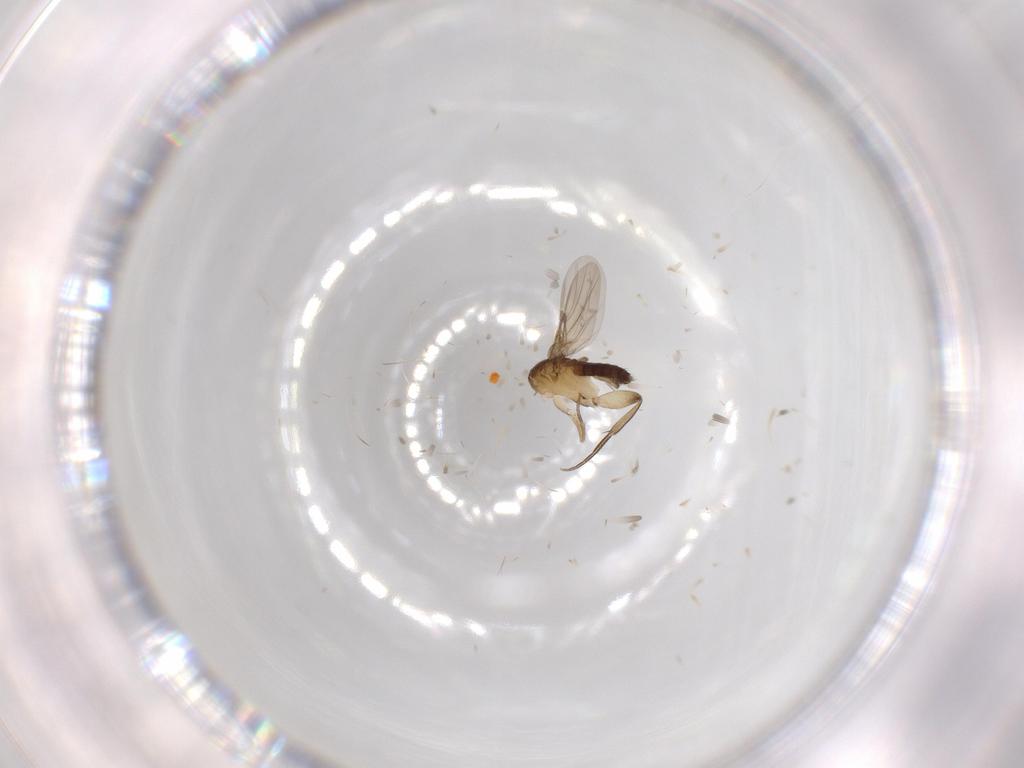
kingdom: Animalia
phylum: Arthropoda
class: Insecta
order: Diptera
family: Phoridae
